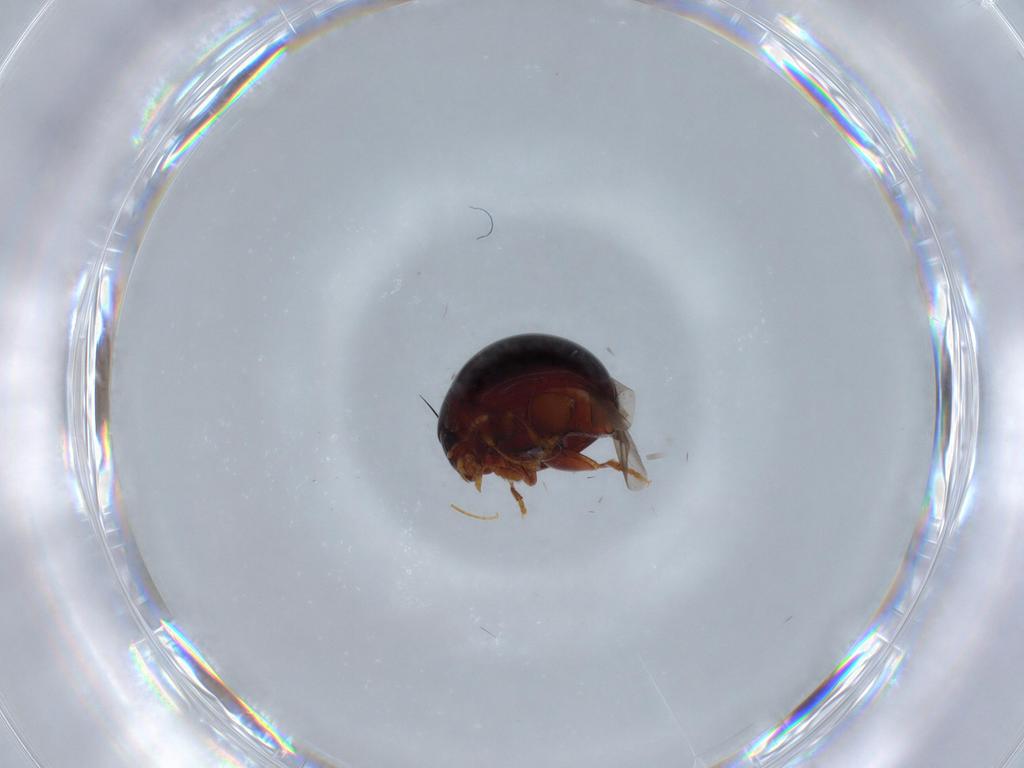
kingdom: Animalia
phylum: Arthropoda
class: Insecta
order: Coleoptera
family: Chrysomelidae
